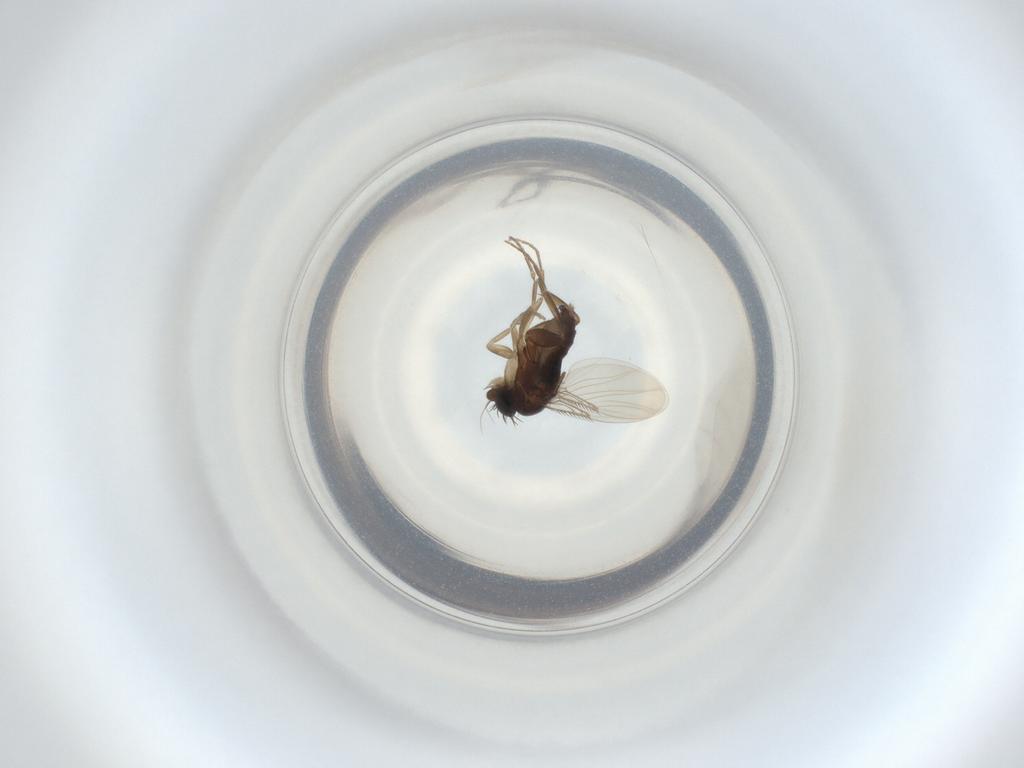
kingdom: Animalia
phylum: Arthropoda
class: Insecta
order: Diptera
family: Phoridae
